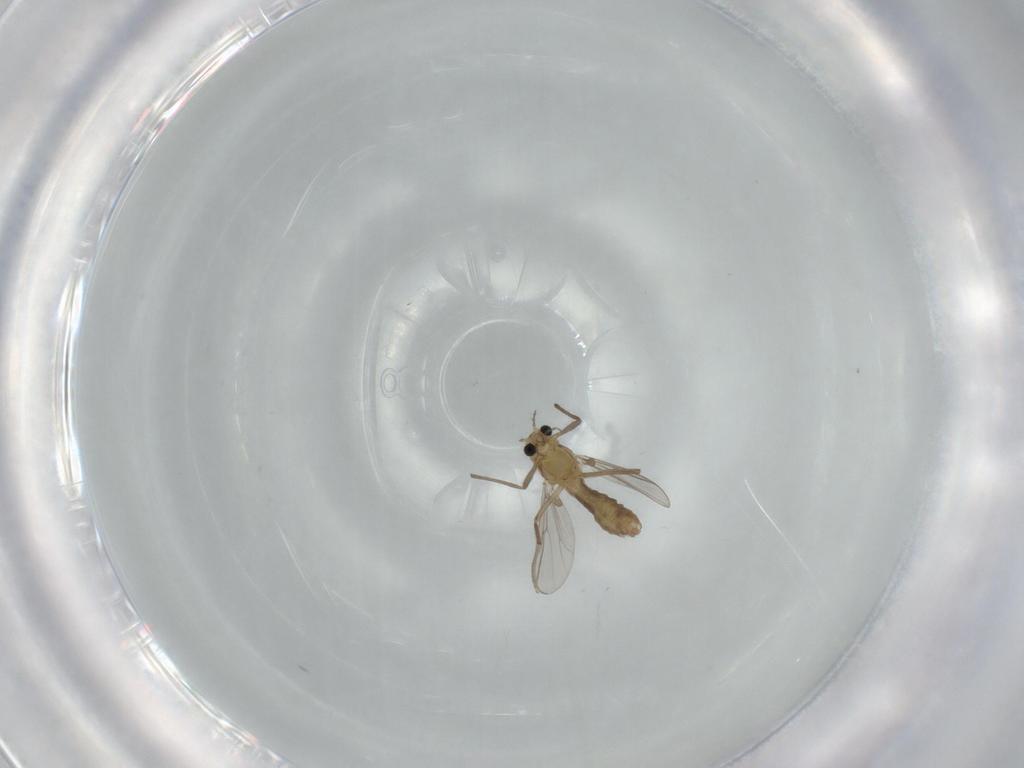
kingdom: Animalia
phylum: Arthropoda
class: Insecta
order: Diptera
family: Chironomidae
